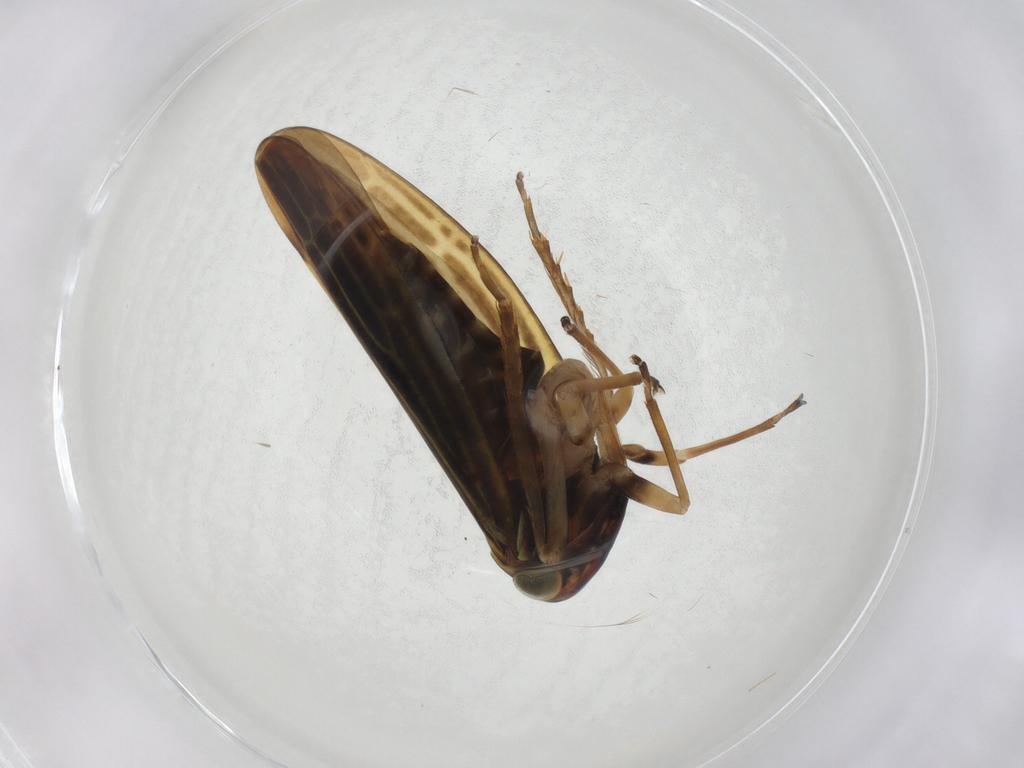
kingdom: Animalia
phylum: Arthropoda
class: Insecta
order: Hemiptera
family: Cicadellidae
